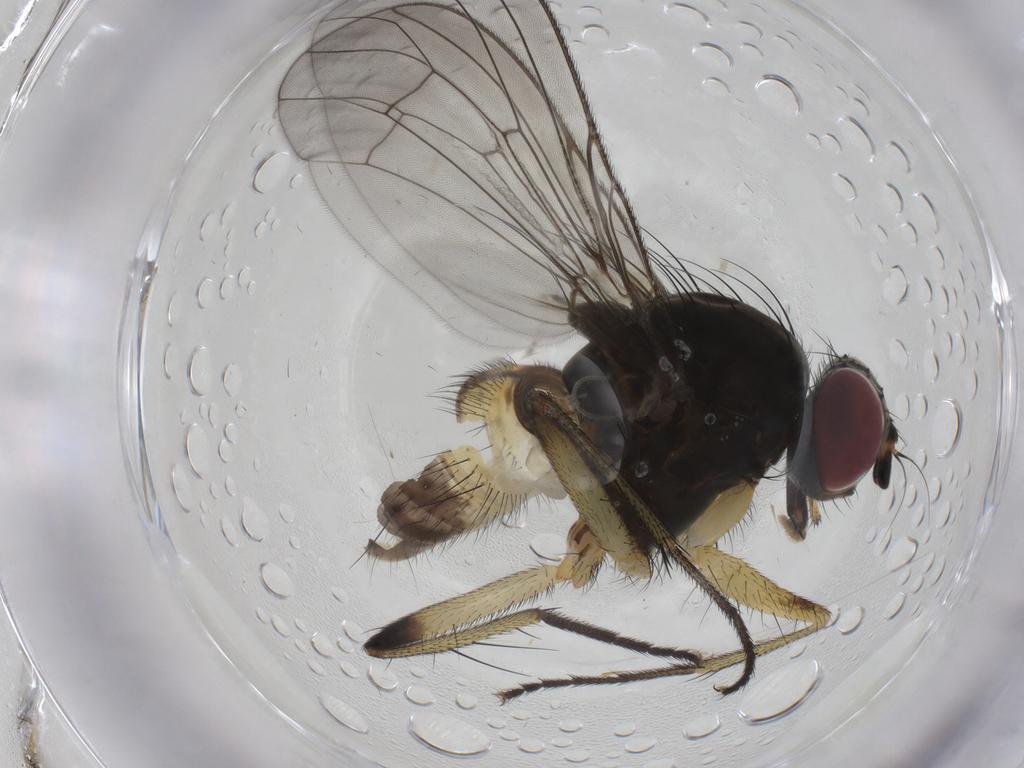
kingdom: Animalia
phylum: Arthropoda
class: Insecta
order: Diptera
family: Muscidae
